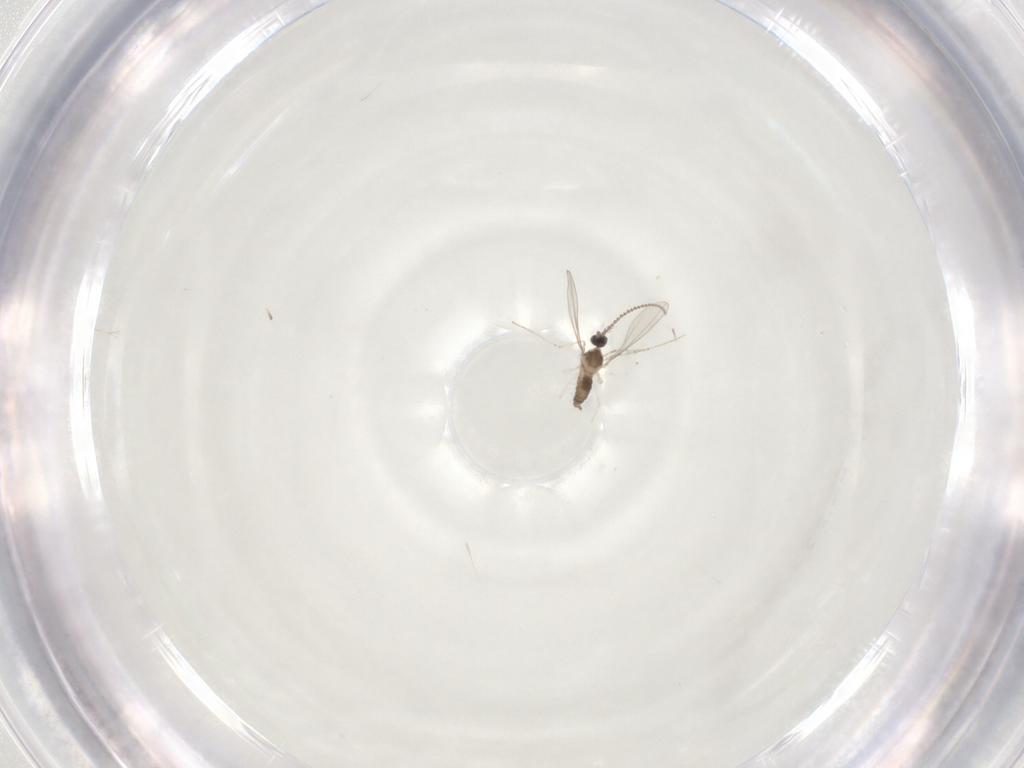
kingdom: Animalia
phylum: Arthropoda
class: Insecta
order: Diptera
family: Cecidomyiidae
